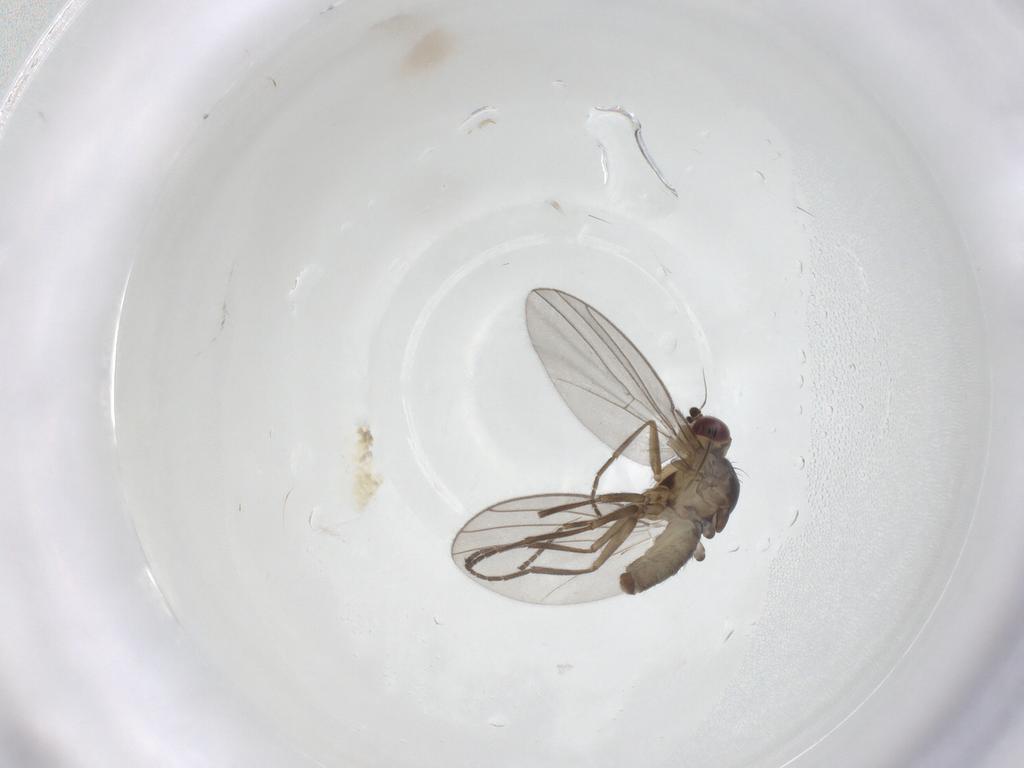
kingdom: Animalia
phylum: Arthropoda
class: Insecta
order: Diptera
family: Agromyzidae
